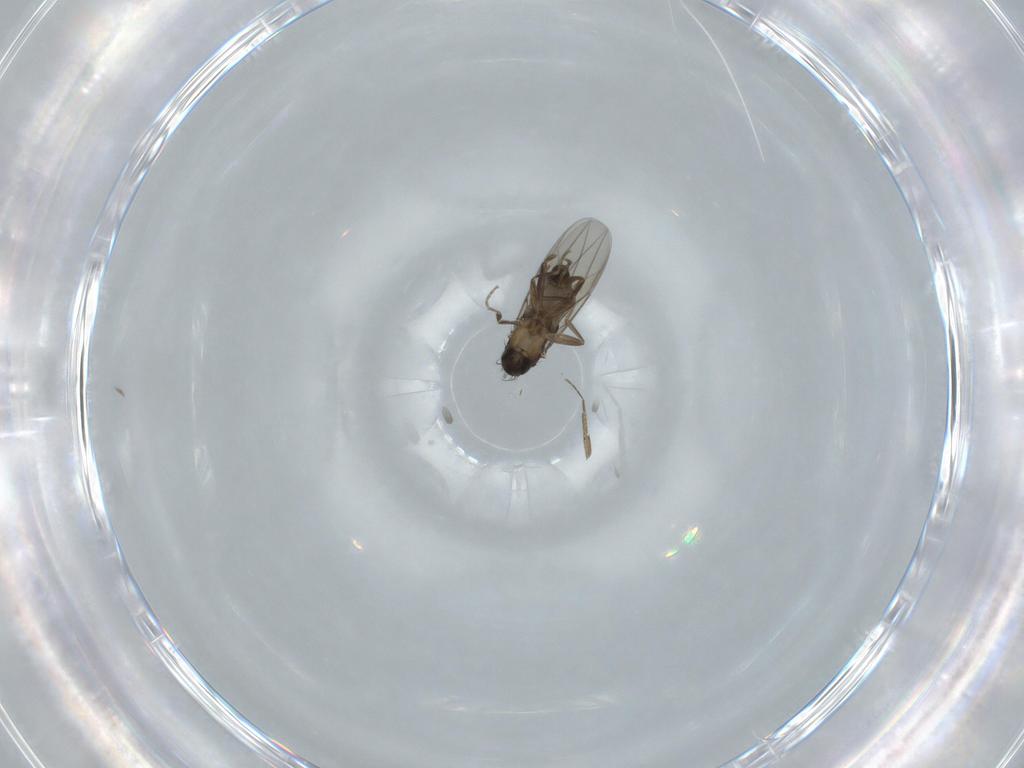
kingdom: Animalia
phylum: Arthropoda
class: Insecta
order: Diptera
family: Phoridae
